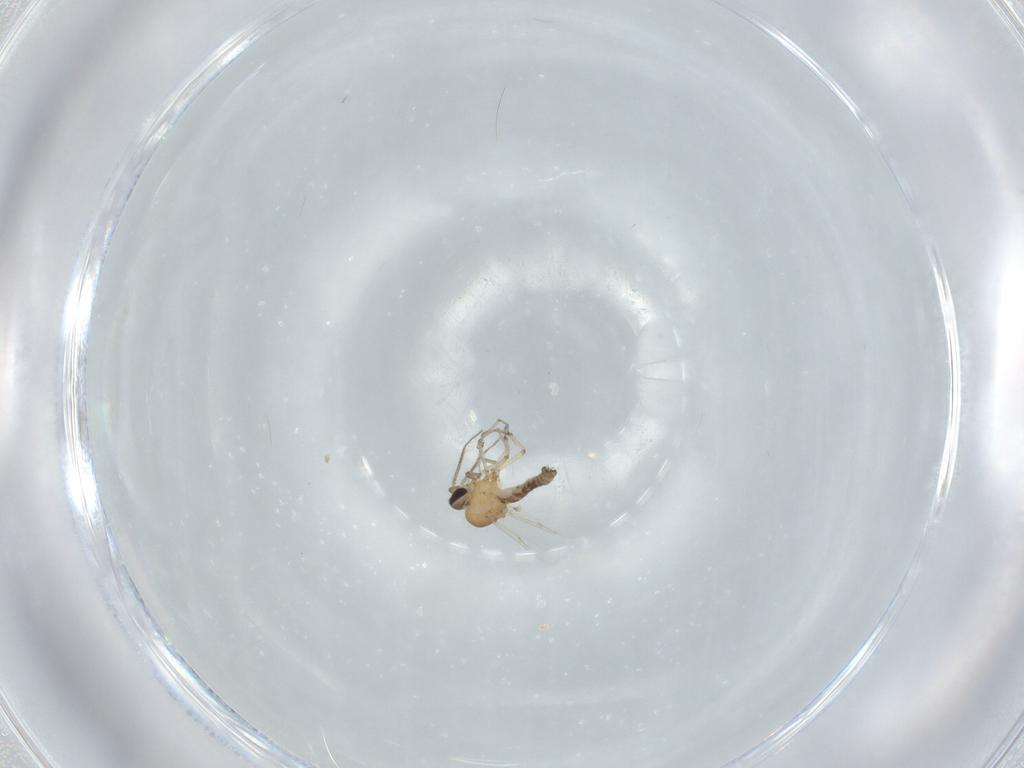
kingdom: Animalia
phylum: Arthropoda
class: Insecta
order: Diptera
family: Ceratopogonidae
